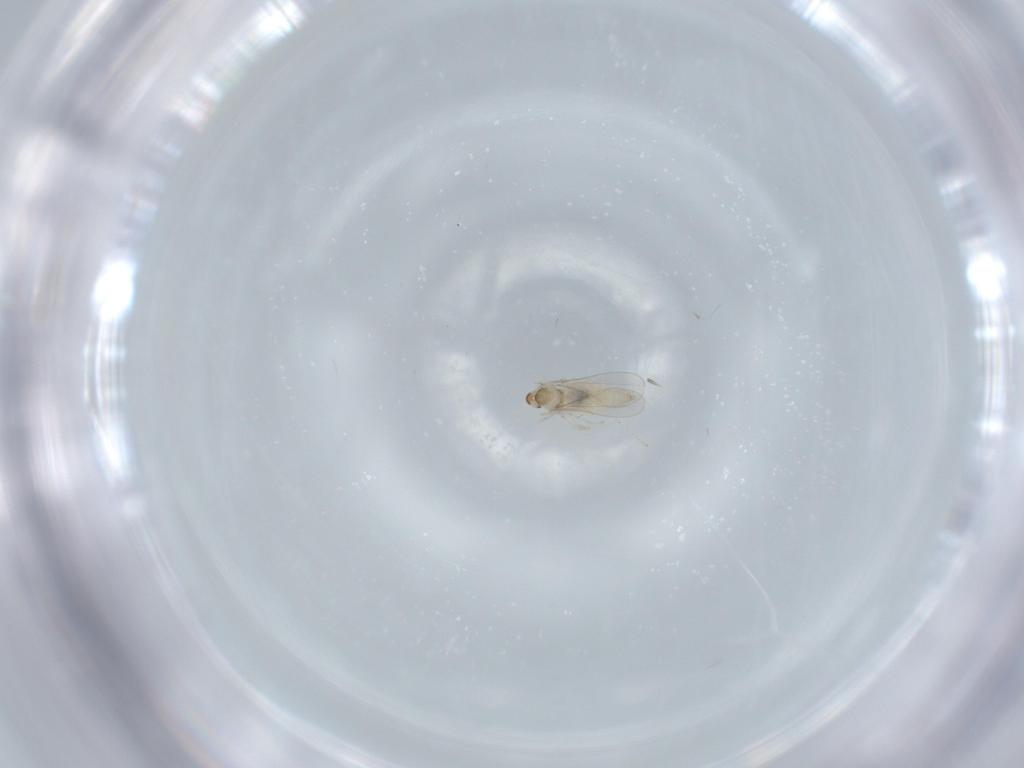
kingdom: Animalia
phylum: Arthropoda
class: Insecta
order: Diptera
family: Cecidomyiidae
